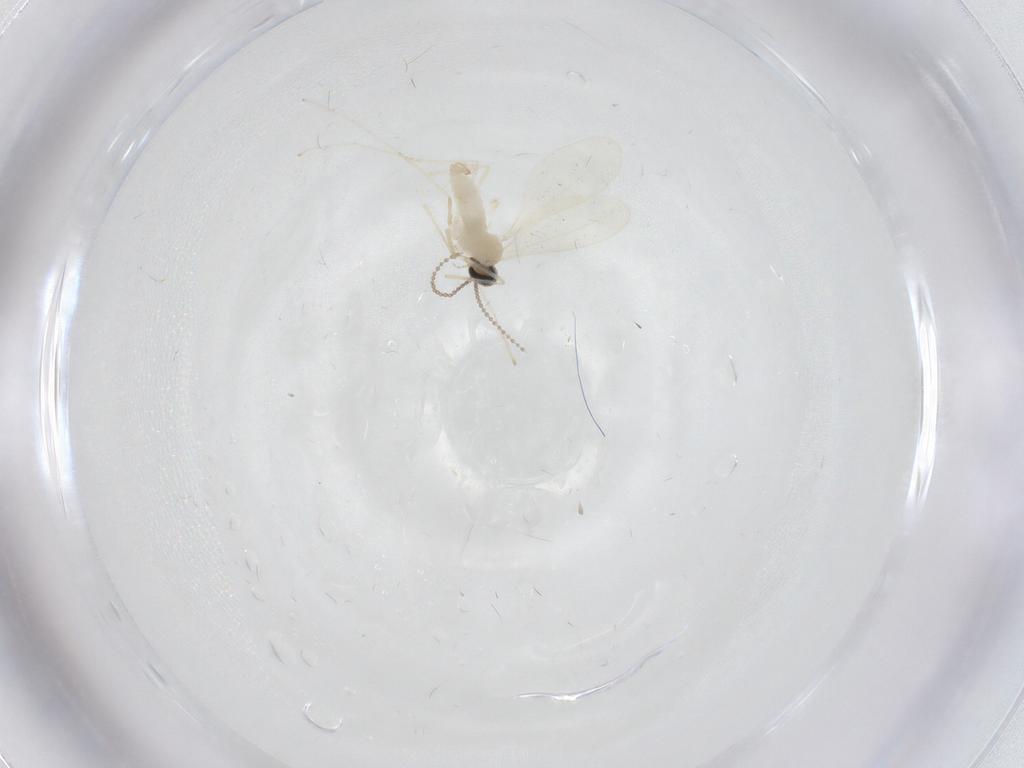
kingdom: Animalia
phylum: Arthropoda
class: Insecta
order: Diptera
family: Cecidomyiidae
